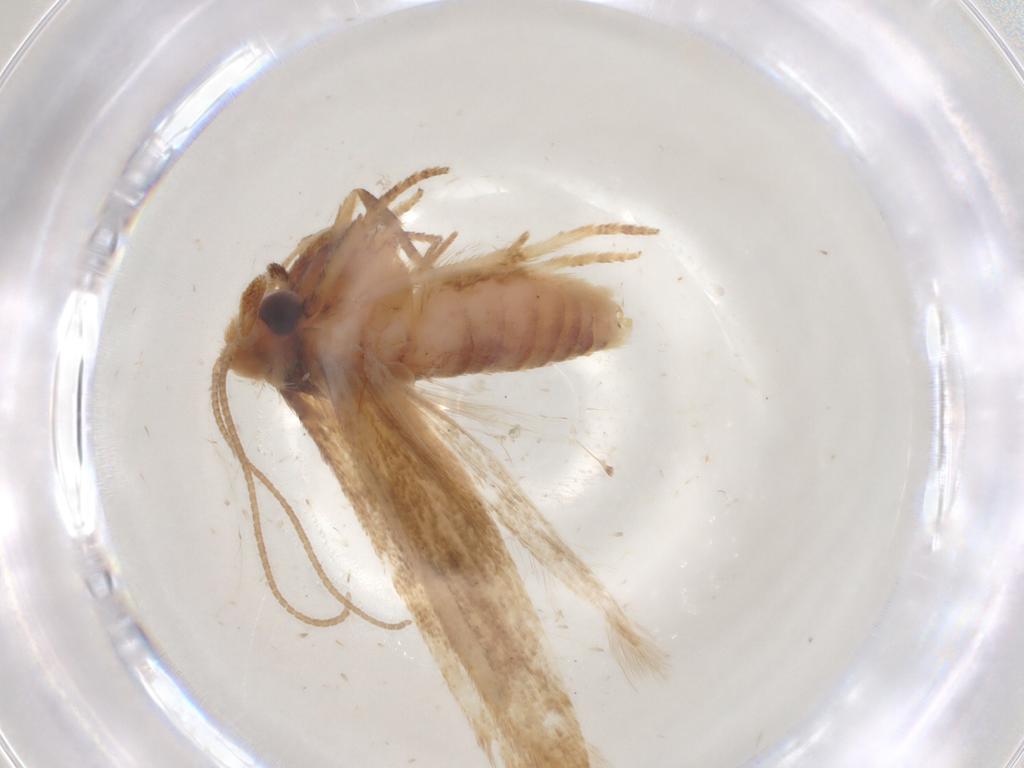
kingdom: Animalia
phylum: Arthropoda
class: Insecta
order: Lepidoptera
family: Coleophoridae
